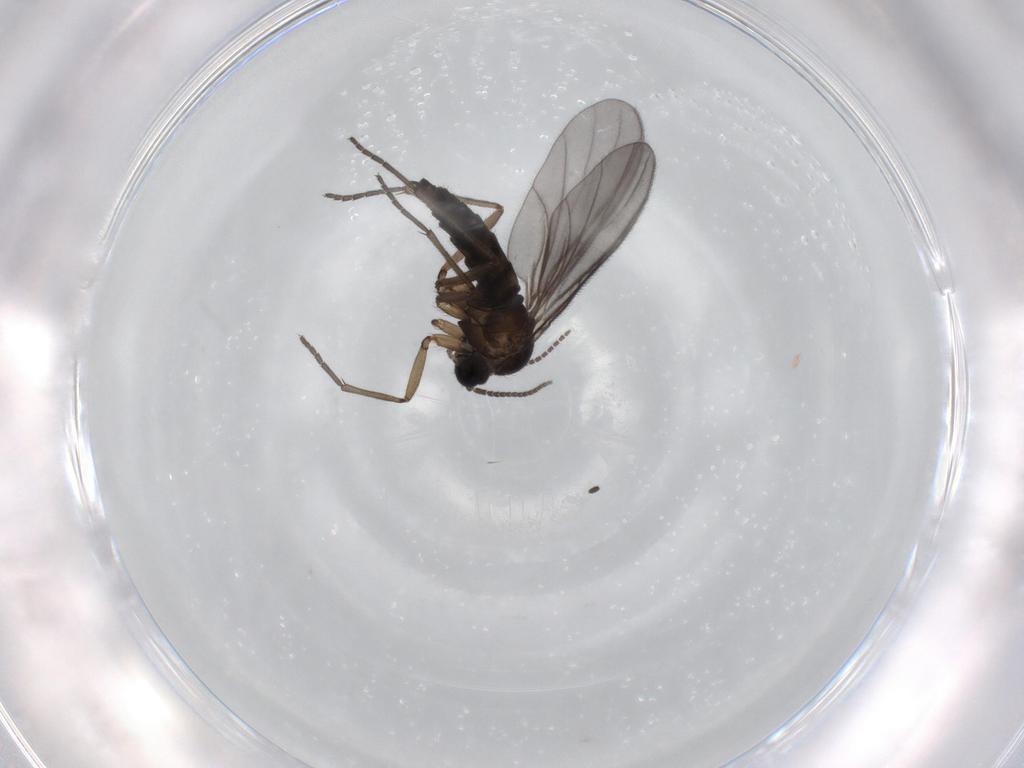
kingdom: Animalia
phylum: Arthropoda
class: Insecta
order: Diptera
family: Sciaridae
